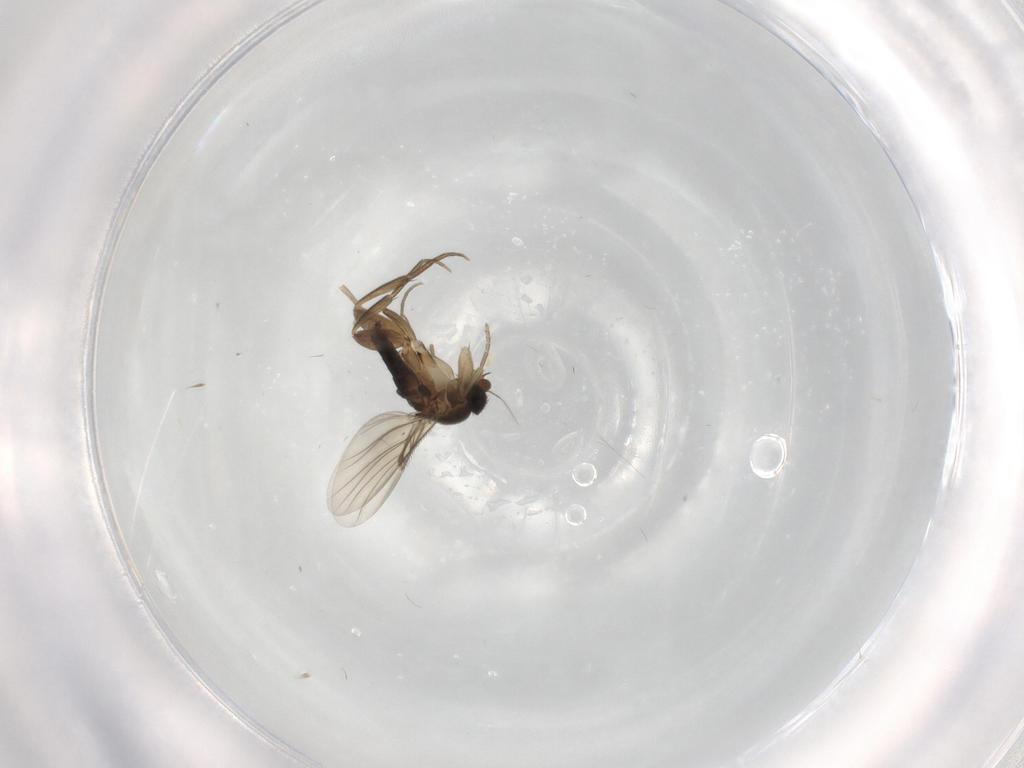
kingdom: Animalia
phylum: Arthropoda
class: Insecta
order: Diptera
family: Phoridae
